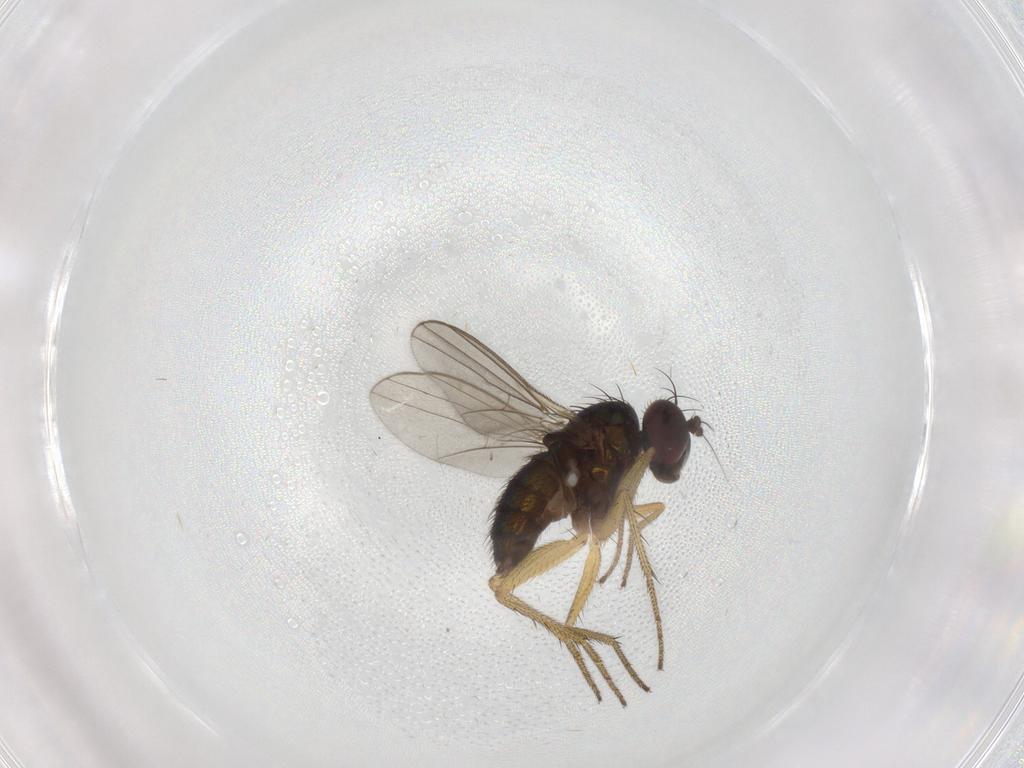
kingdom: Animalia
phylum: Arthropoda
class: Insecta
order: Diptera
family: Dolichopodidae
